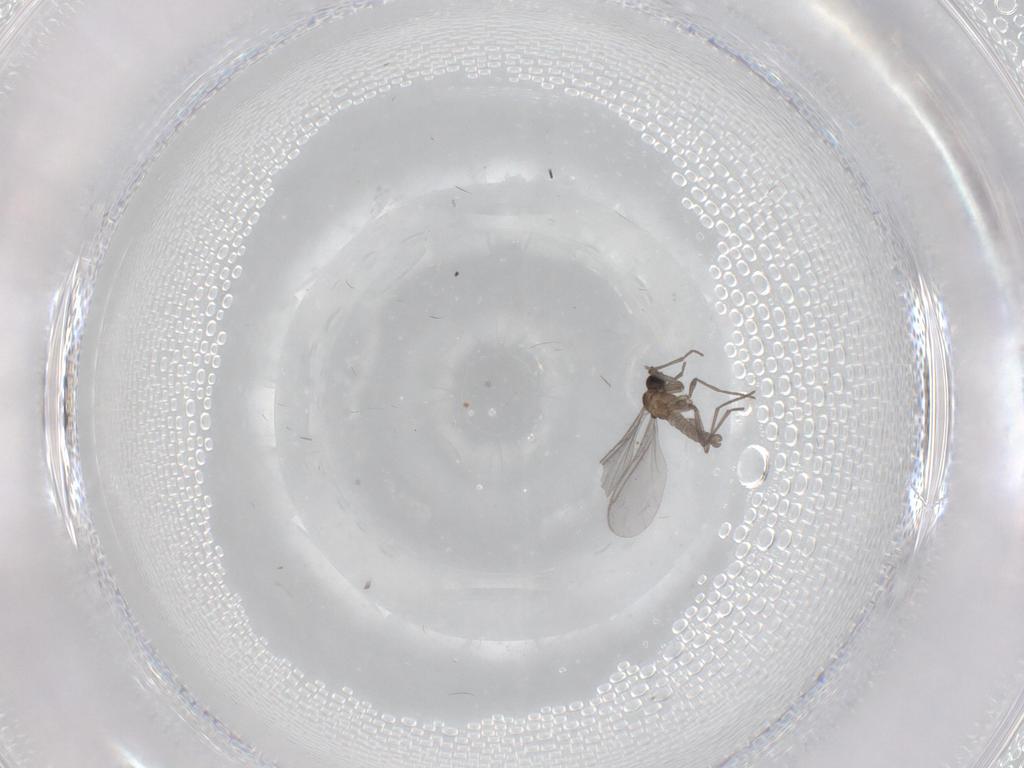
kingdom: Animalia
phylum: Arthropoda
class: Insecta
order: Diptera
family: Sciaridae
